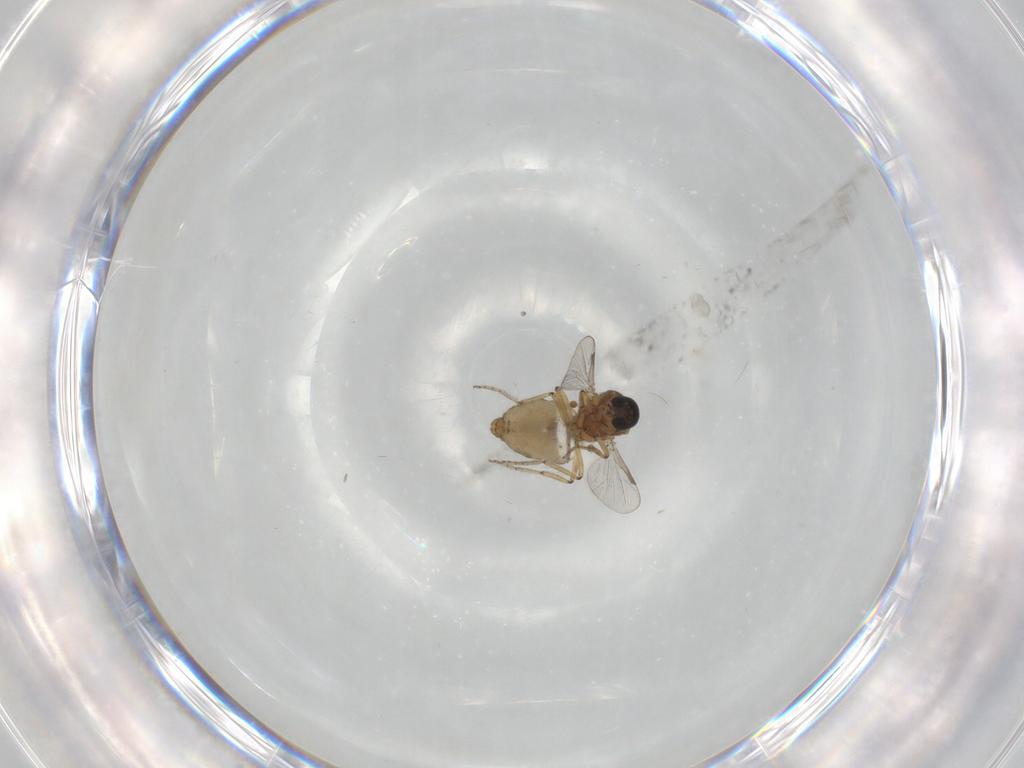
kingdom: Animalia
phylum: Arthropoda
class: Insecta
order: Diptera
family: Ceratopogonidae
